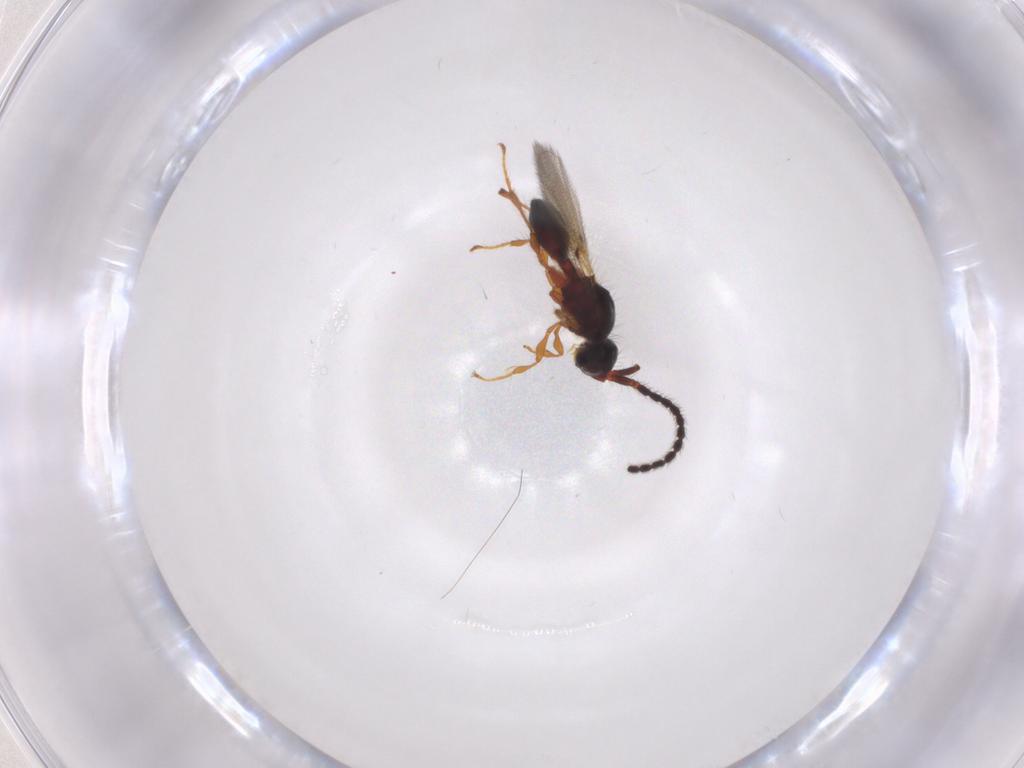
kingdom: Animalia
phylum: Arthropoda
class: Insecta
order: Hymenoptera
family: Diapriidae
